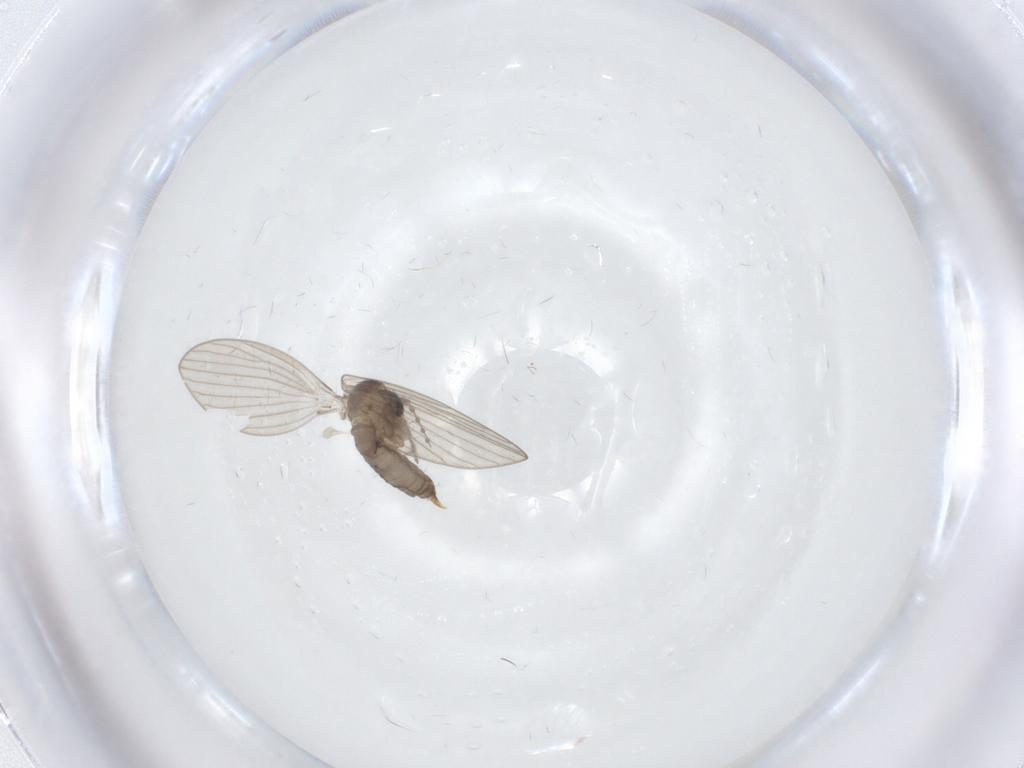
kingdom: Animalia
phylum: Arthropoda
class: Insecta
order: Diptera
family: Psychodidae
